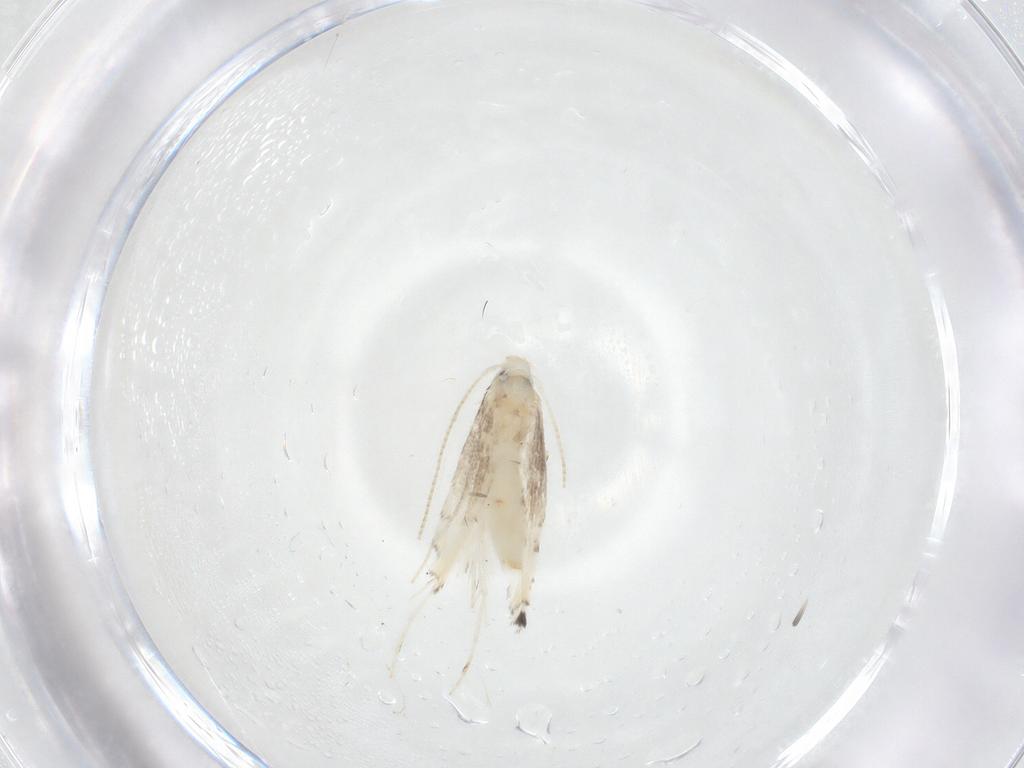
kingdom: Animalia
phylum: Arthropoda
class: Insecta
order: Lepidoptera
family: Gracillariidae
